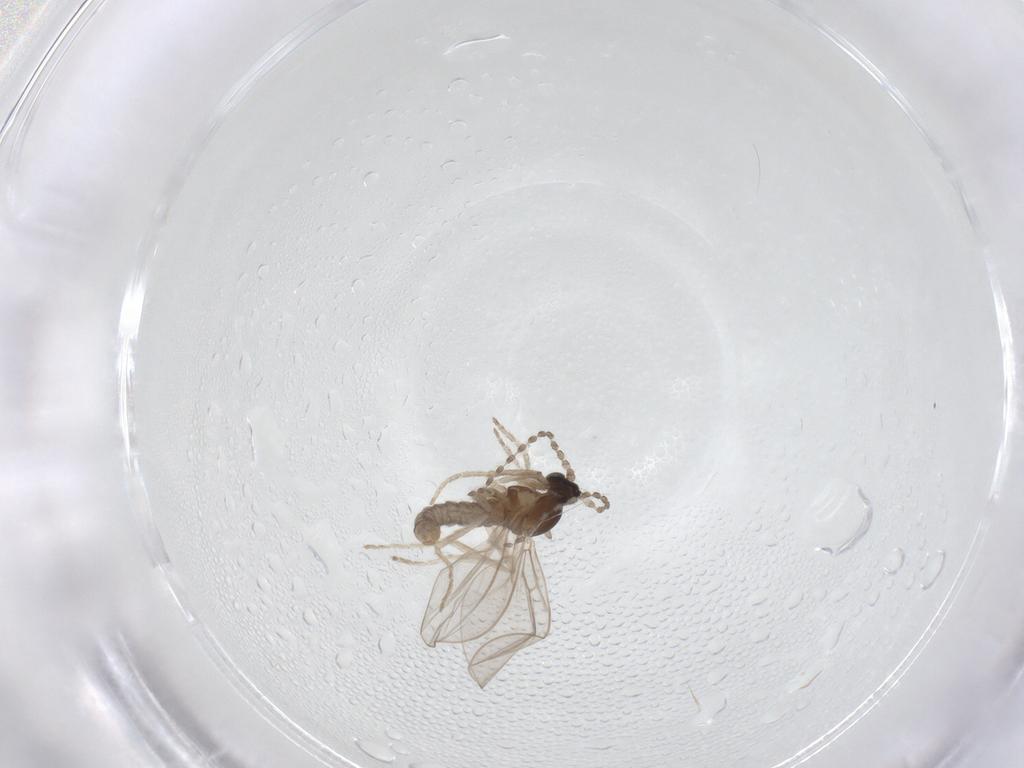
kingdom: Animalia
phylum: Arthropoda
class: Insecta
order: Diptera
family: Cecidomyiidae
